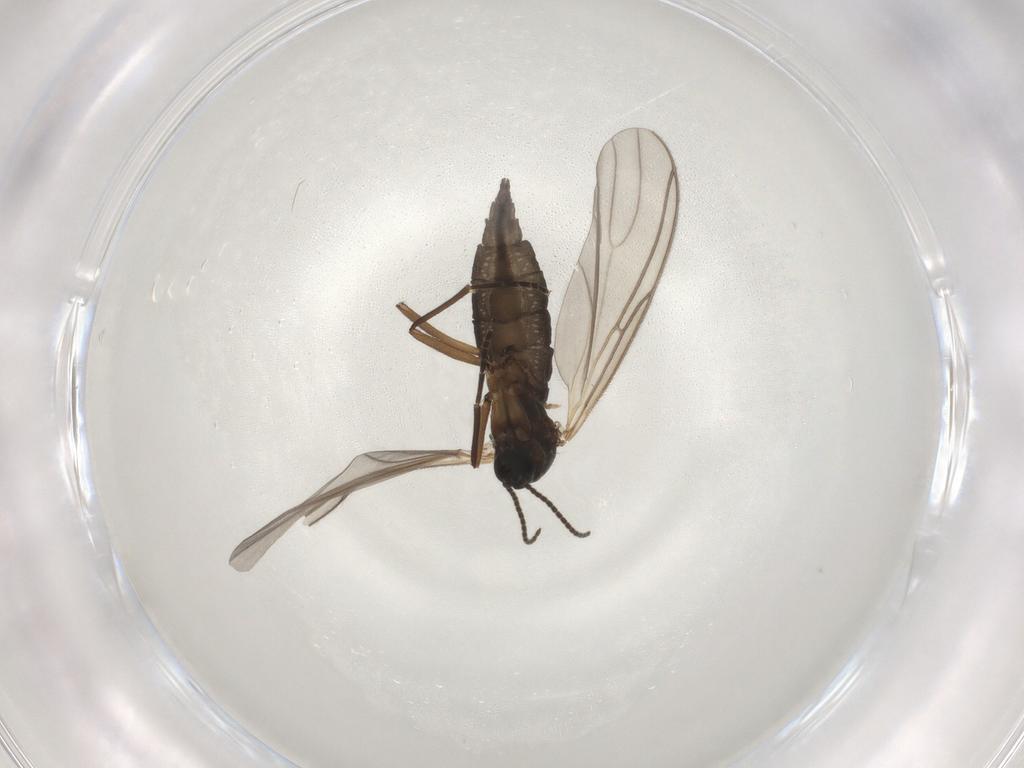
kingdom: Animalia
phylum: Arthropoda
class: Insecta
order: Diptera
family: Sciaridae
